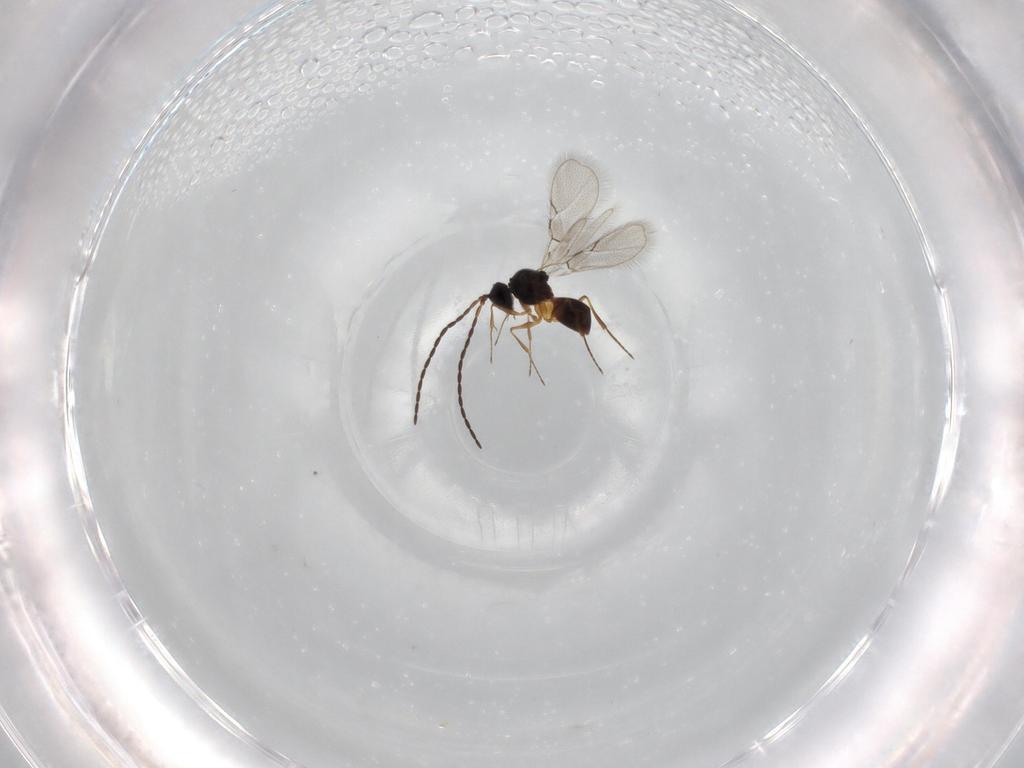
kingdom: Animalia
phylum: Arthropoda
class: Insecta
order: Hymenoptera
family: Figitidae
